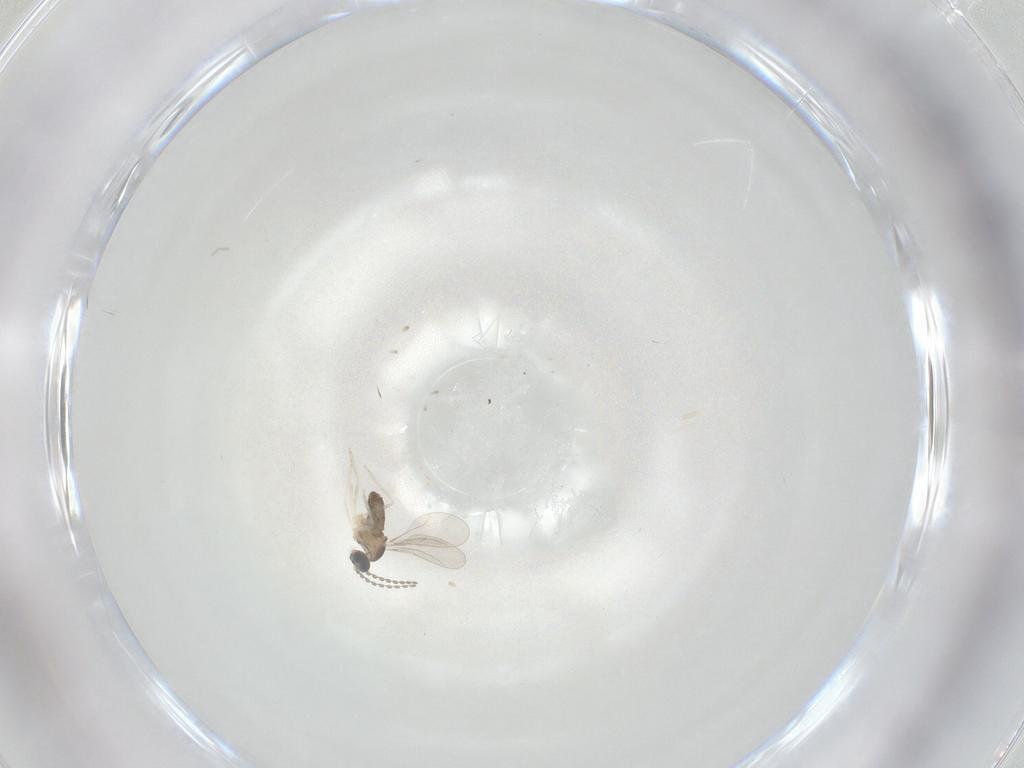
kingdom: Animalia
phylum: Arthropoda
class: Insecta
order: Diptera
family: Cecidomyiidae
